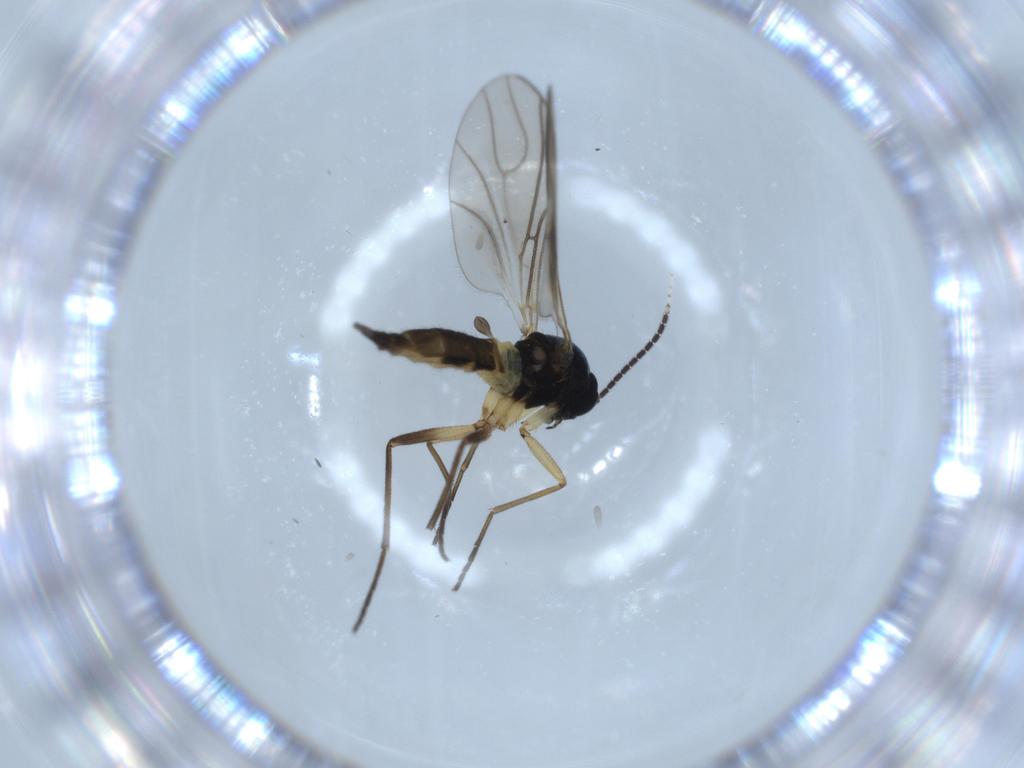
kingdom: Animalia
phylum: Arthropoda
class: Insecta
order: Diptera
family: Sciaridae
